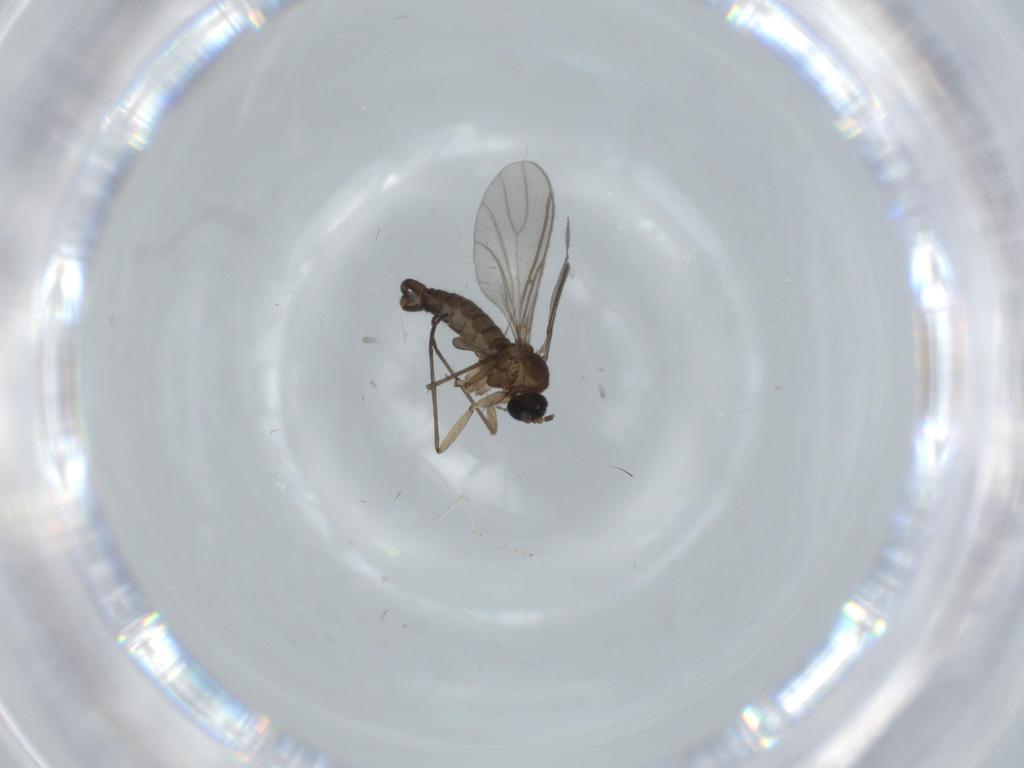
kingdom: Animalia
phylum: Arthropoda
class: Insecta
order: Diptera
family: Sciaridae
